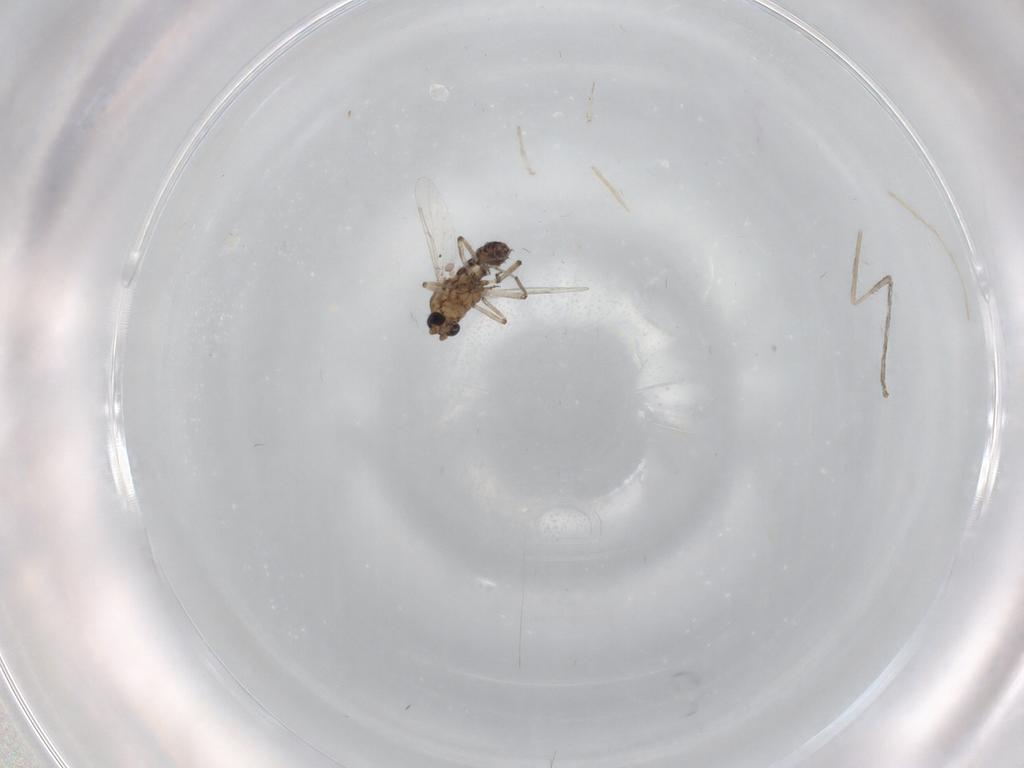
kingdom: Animalia
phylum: Arthropoda
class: Insecta
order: Diptera
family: Ceratopogonidae
